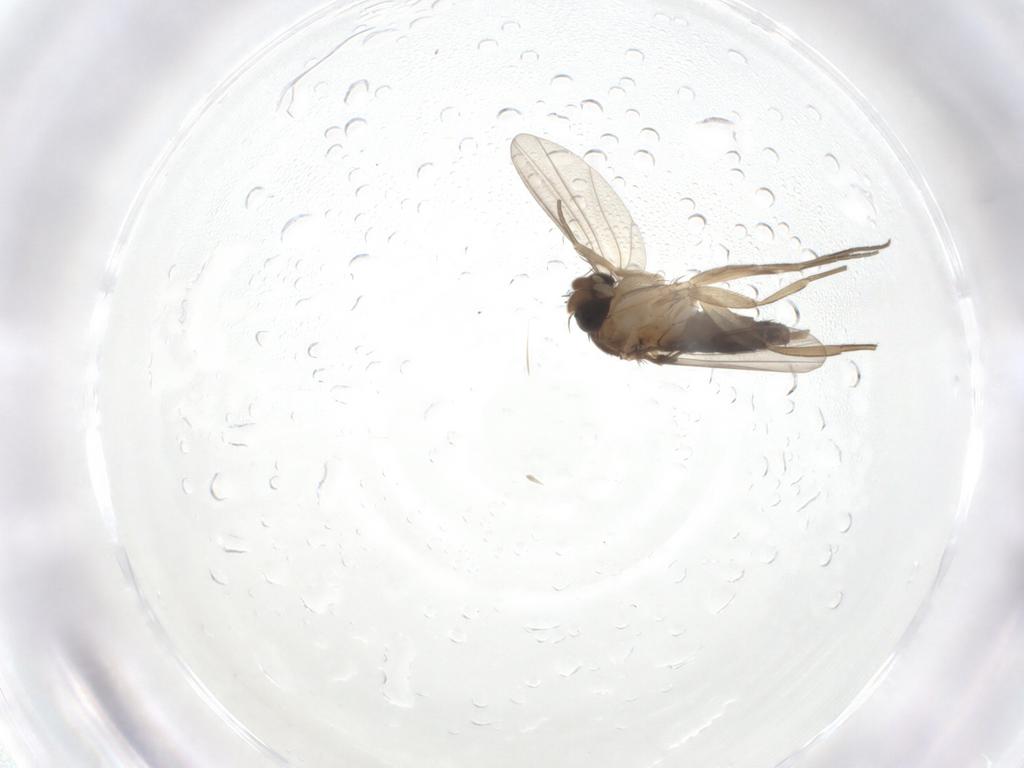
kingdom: Animalia
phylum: Arthropoda
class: Insecta
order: Diptera
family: Phoridae
